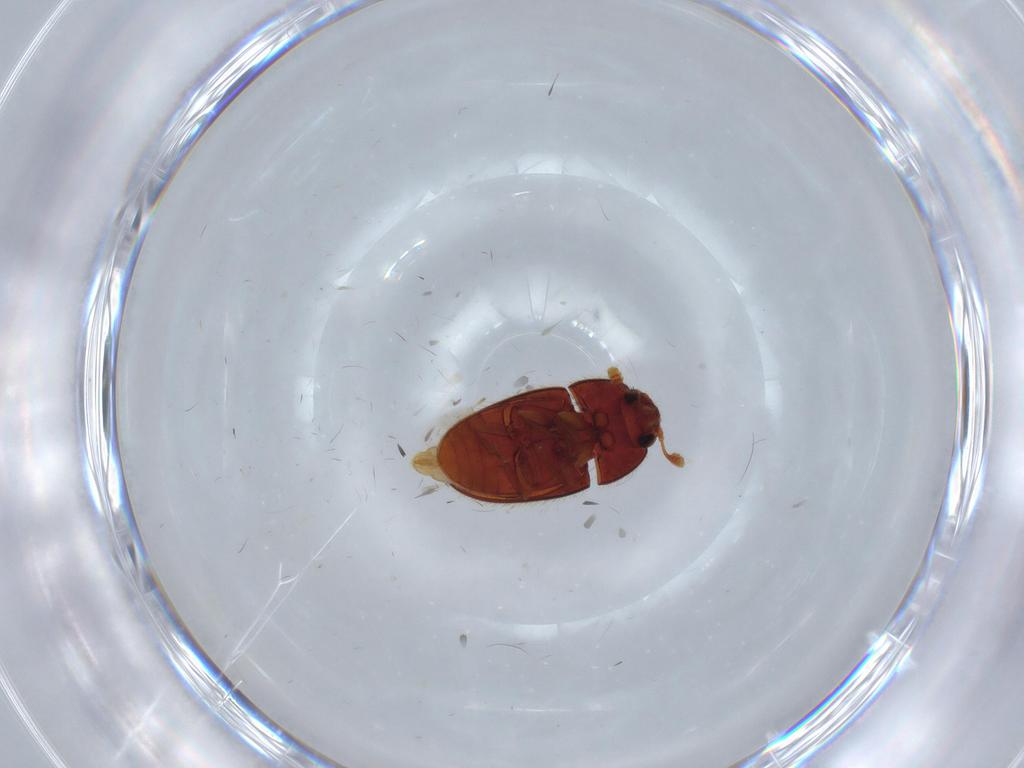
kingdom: Animalia
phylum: Arthropoda
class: Insecta
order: Coleoptera
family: Biphyllidae
